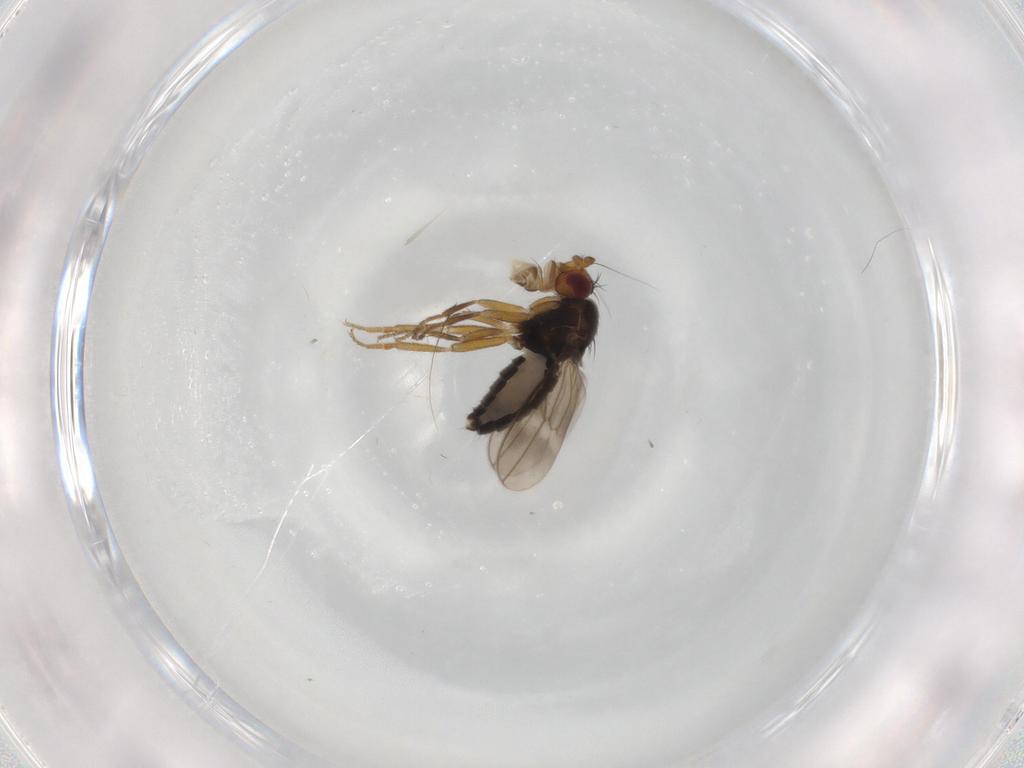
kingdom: Animalia
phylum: Arthropoda
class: Insecta
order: Diptera
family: Sphaeroceridae
